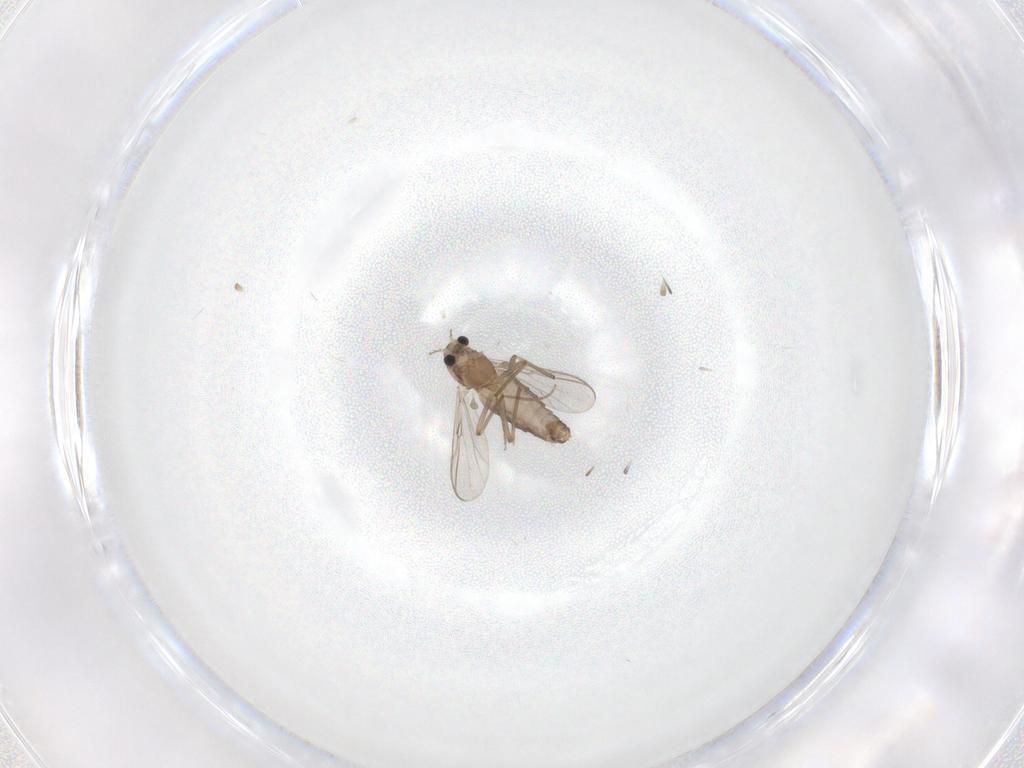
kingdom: Animalia
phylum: Arthropoda
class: Insecta
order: Diptera
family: Chironomidae
